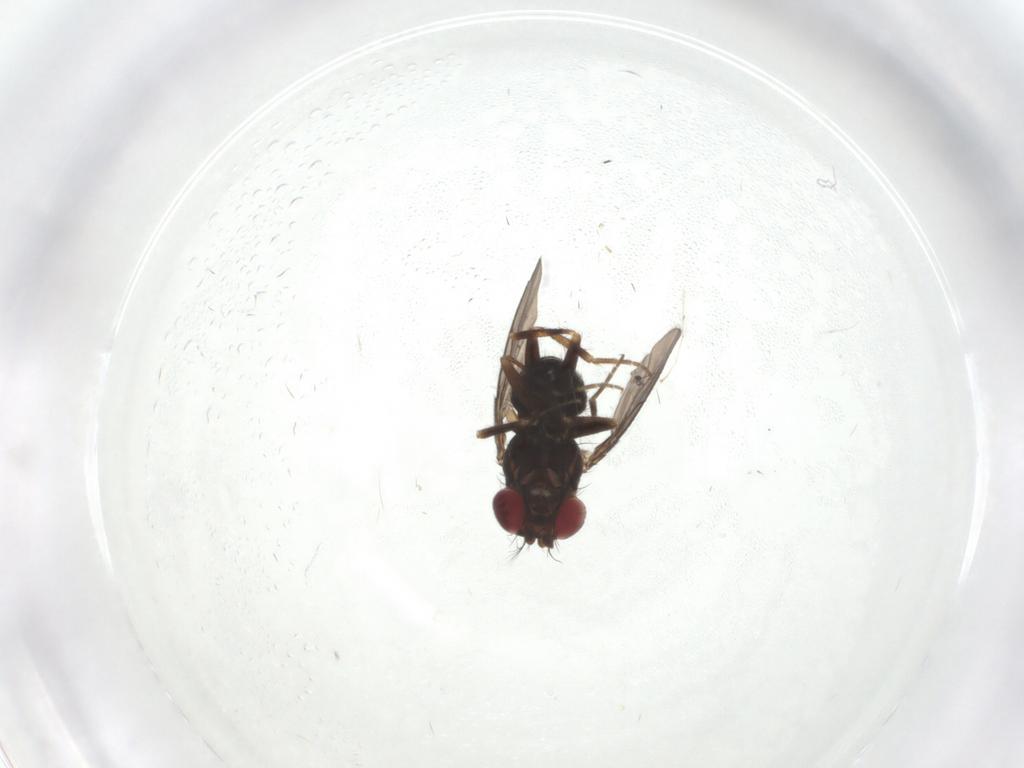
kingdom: Animalia
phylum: Arthropoda
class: Insecta
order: Diptera
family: Ephydridae
